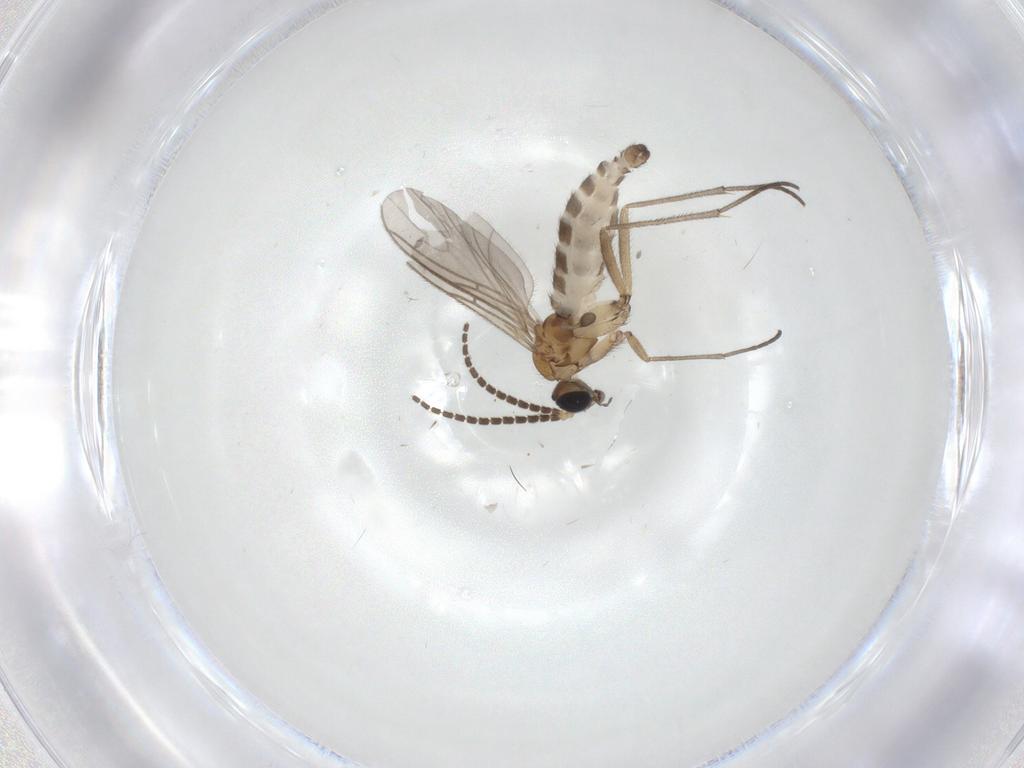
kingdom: Animalia
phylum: Arthropoda
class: Insecta
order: Diptera
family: Sciaridae
